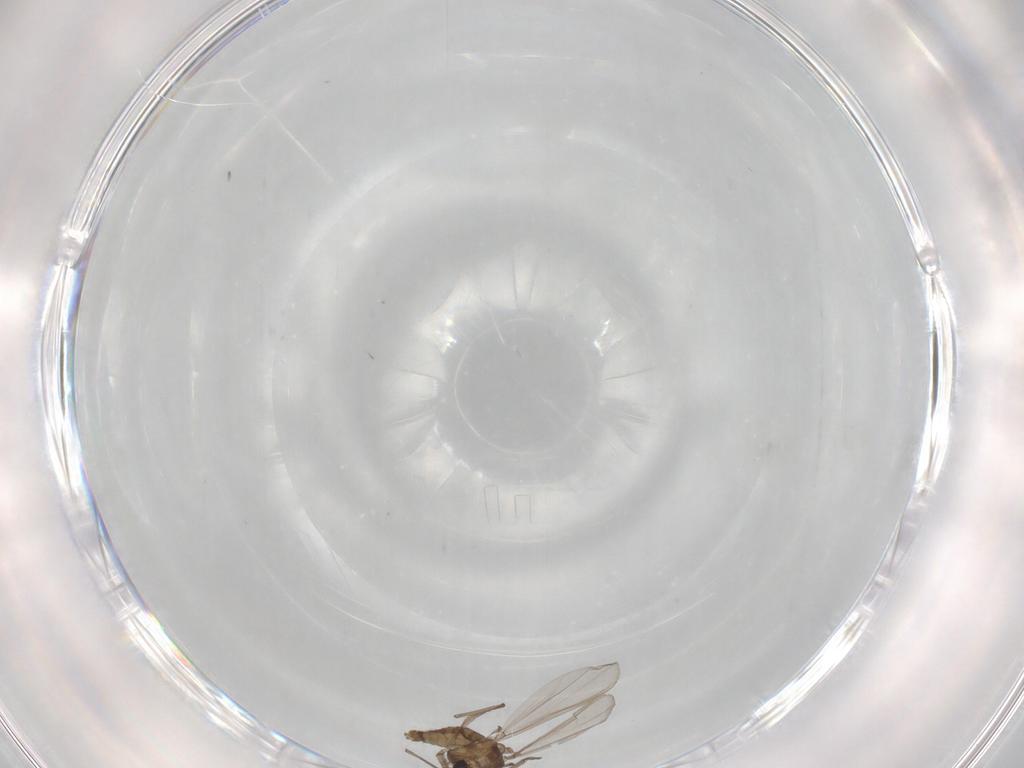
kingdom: Animalia
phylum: Arthropoda
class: Insecta
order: Diptera
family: Chironomidae
